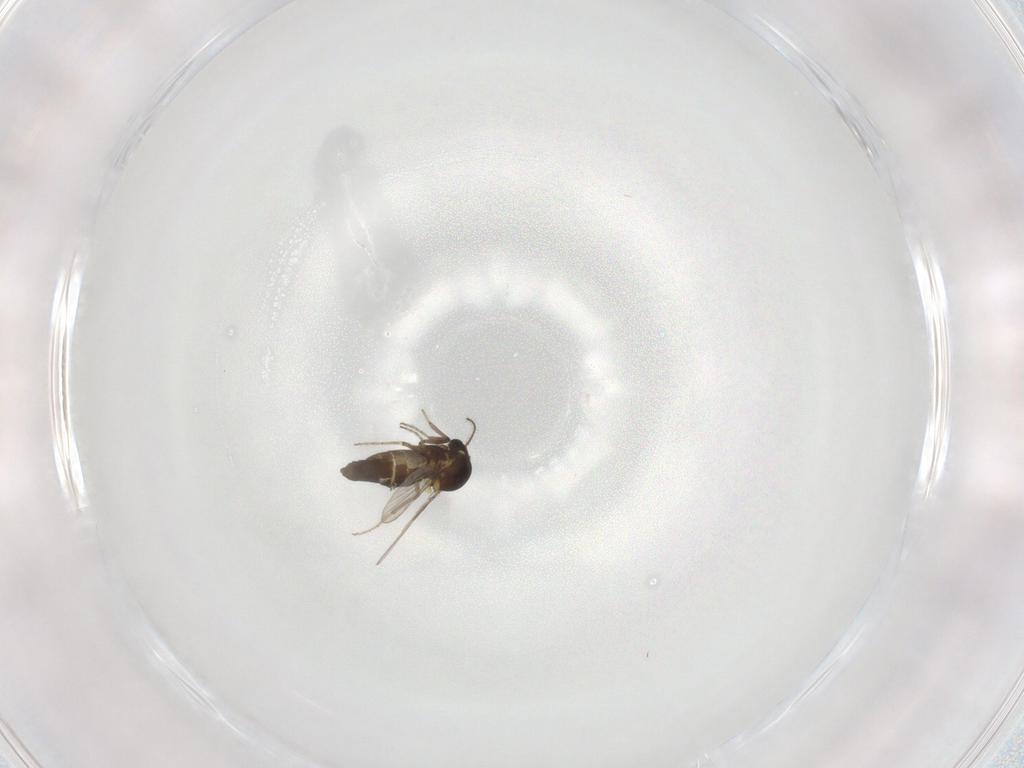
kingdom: Animalia
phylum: Arthropoda
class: Insecta
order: Diptera
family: Ceratopogonidae
